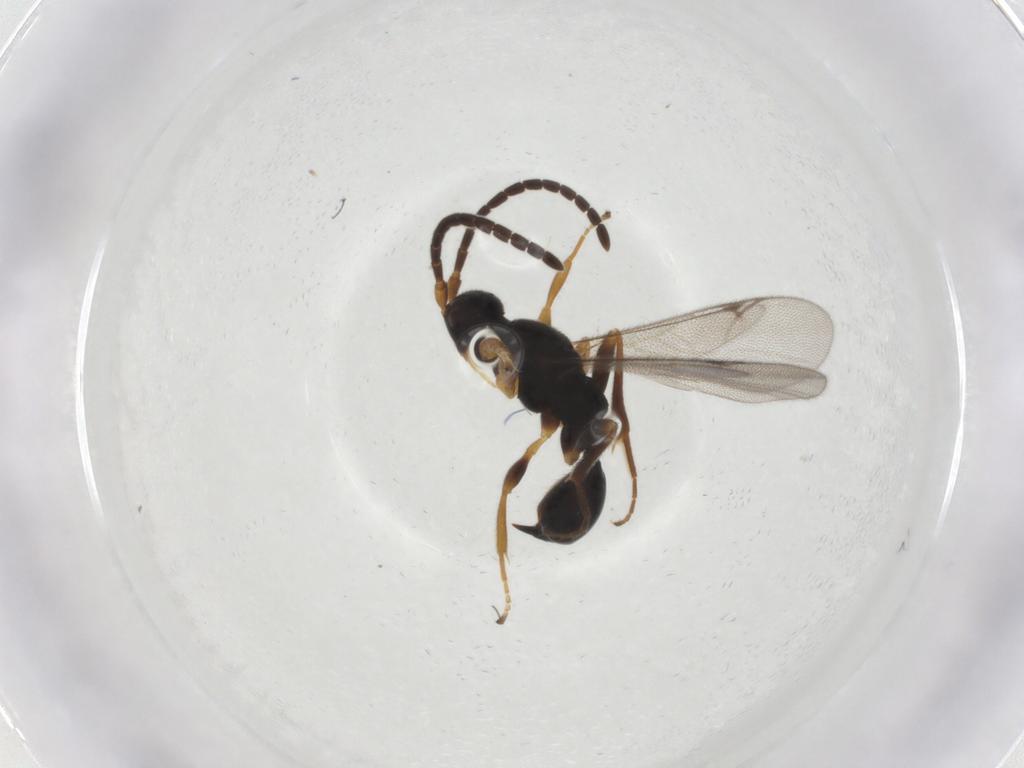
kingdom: Animalia
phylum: Arthropoda
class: Insecta
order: Hymenoptera
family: Proctotrupidae
